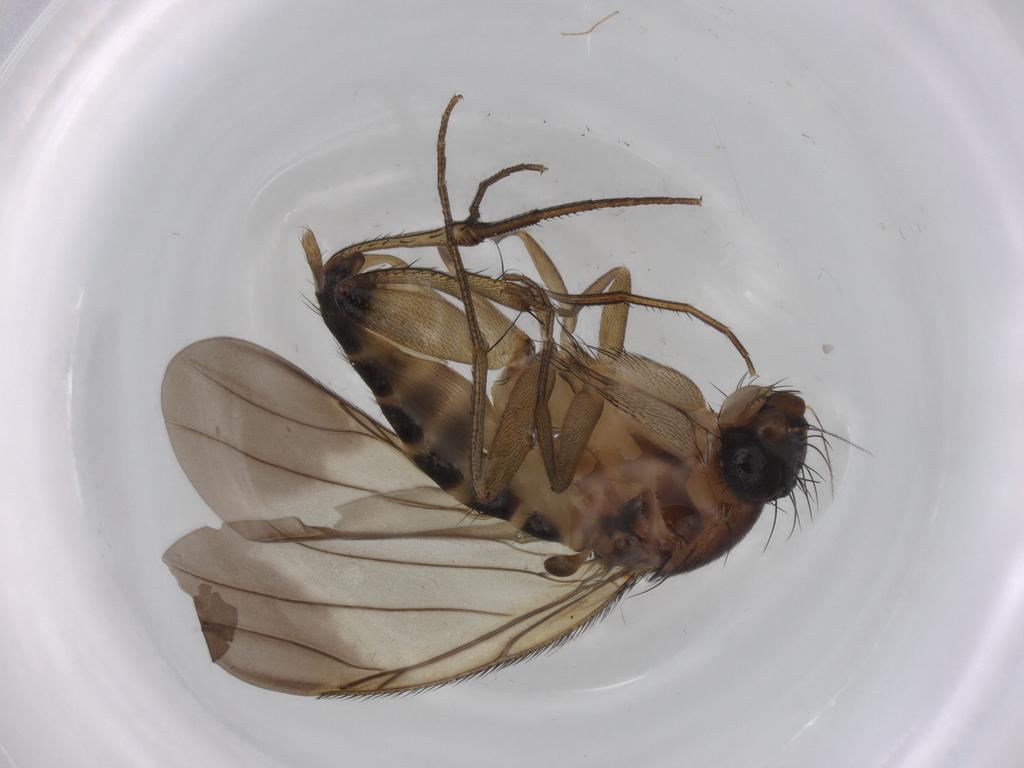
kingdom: Animalia
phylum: Arthropoda
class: Insecta
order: Diptera
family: Phoridae
